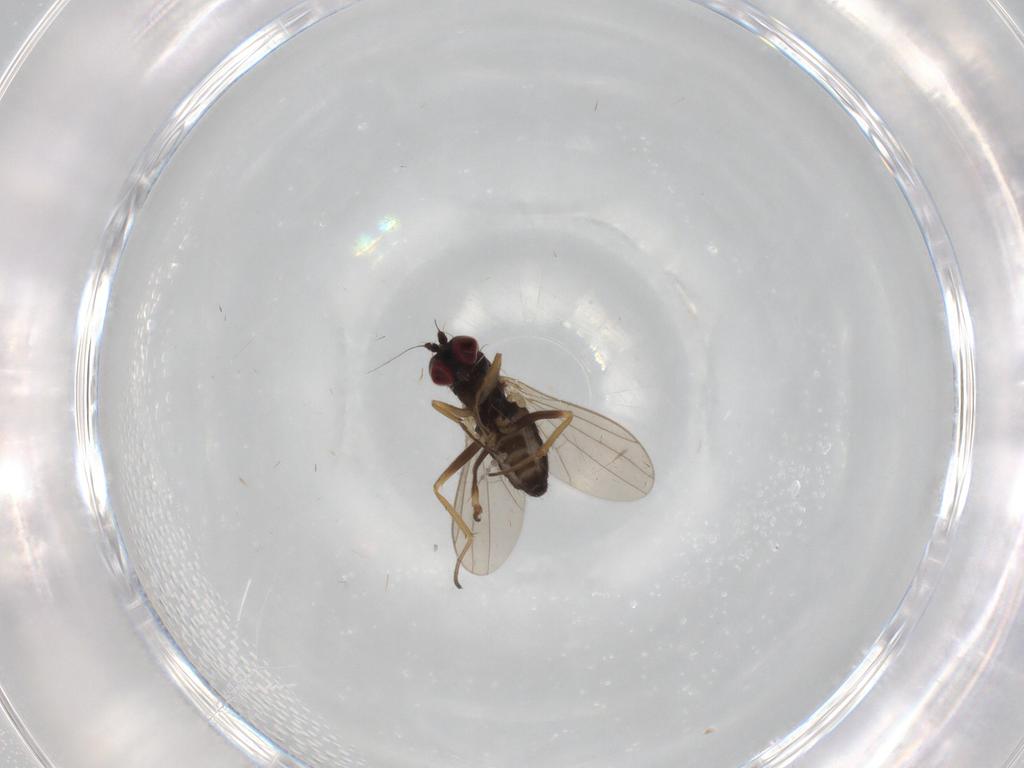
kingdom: Animalia
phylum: Arthropoda
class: Insecta
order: Diptera
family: Dolichopodidae
